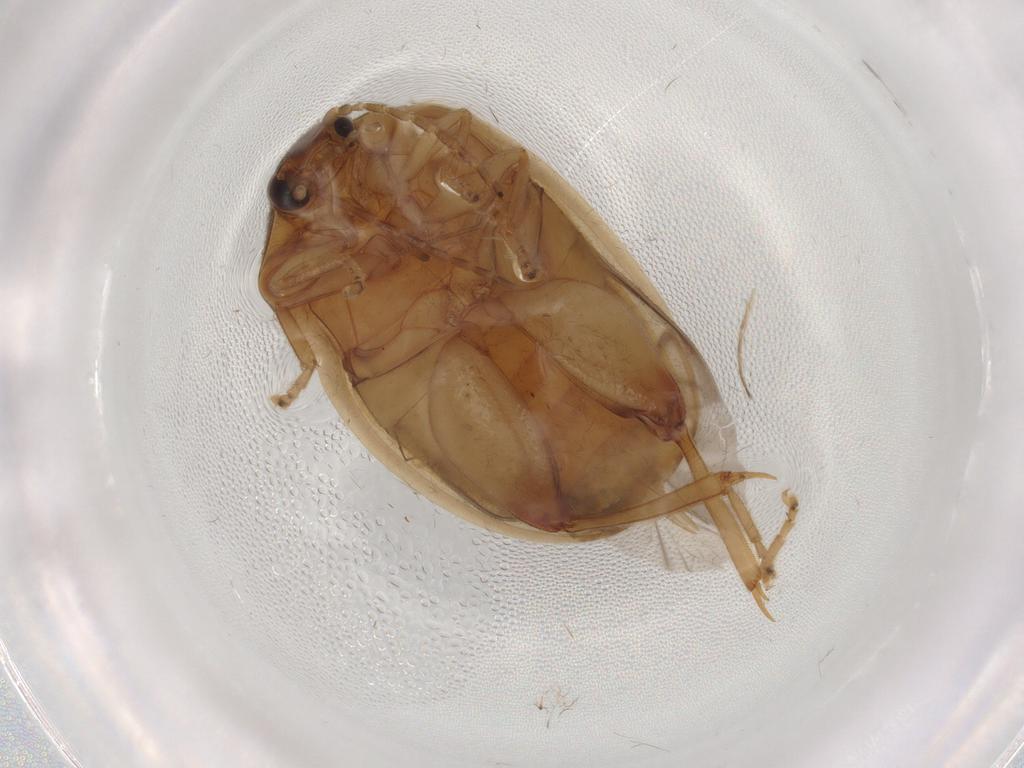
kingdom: Animalia
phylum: Arthropoda
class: Insecta
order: Coleoptera
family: Scirtidae
